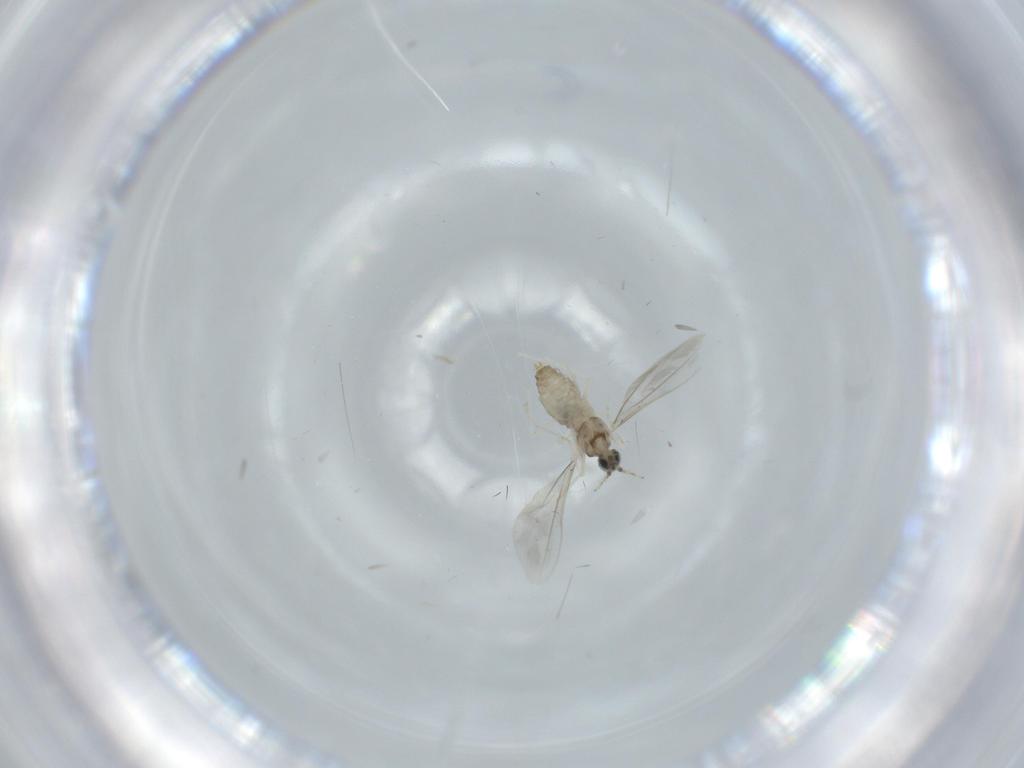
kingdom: Animalia
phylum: Arthropoda
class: Insecta
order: Diptera
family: Cecidomyiidae
